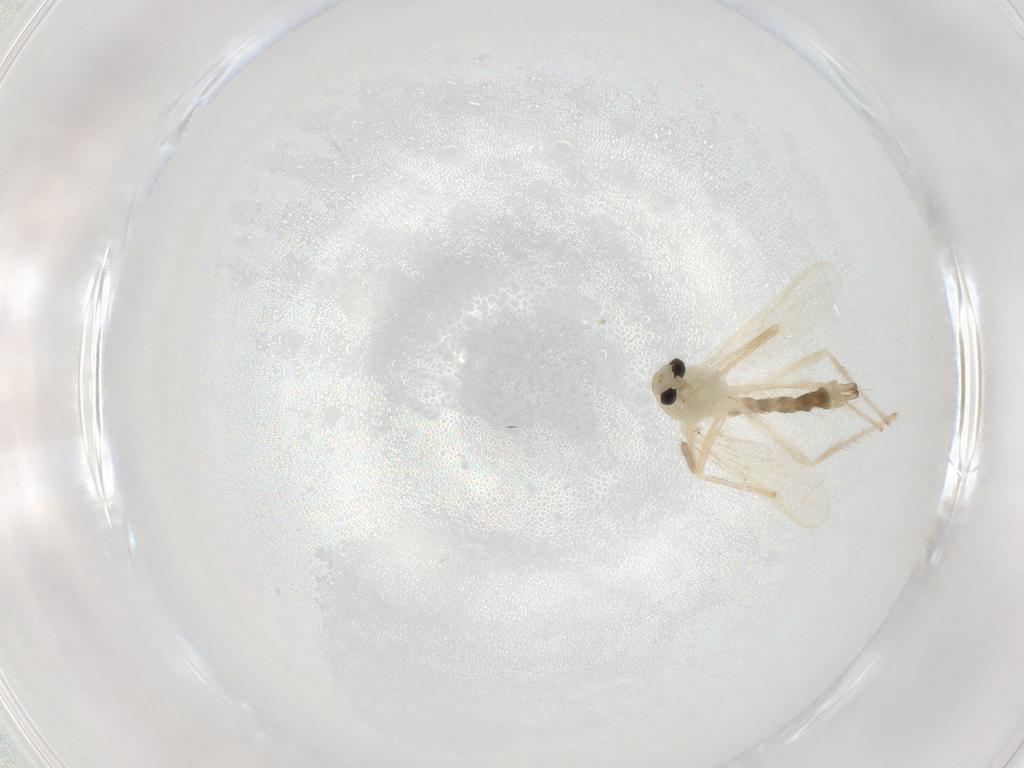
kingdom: Animalia
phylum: Arthropoda
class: Insecta
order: Diptera
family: Chironomidae
